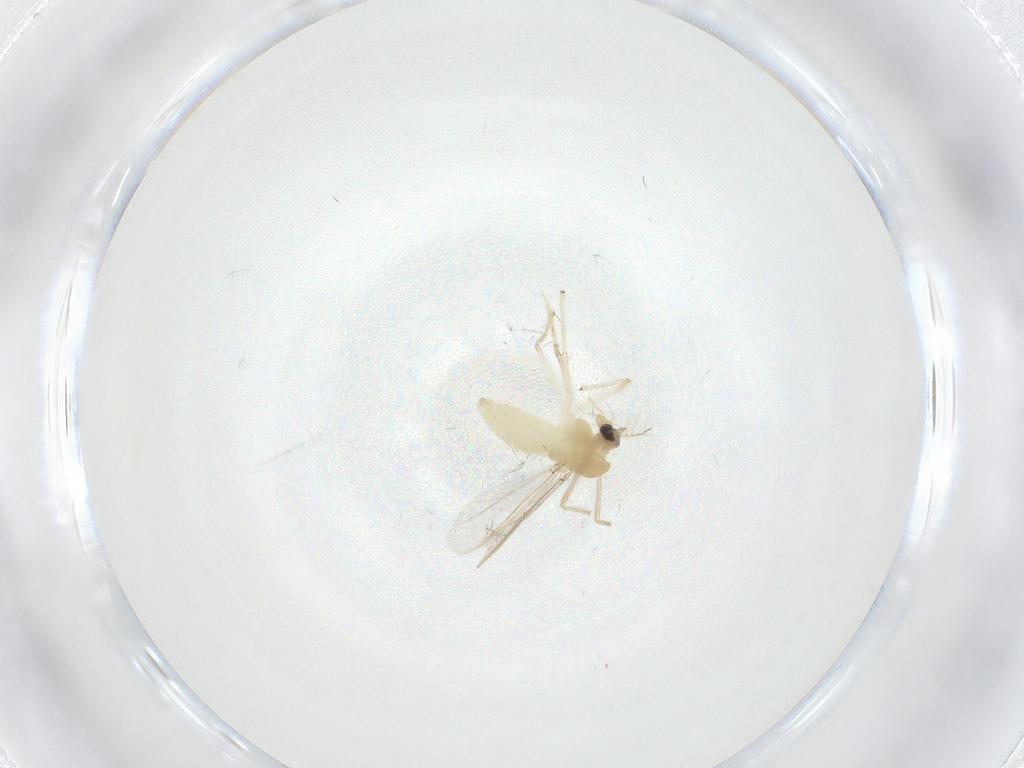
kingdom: Animalia
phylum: Arthropoda
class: Insecta
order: Diptera
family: Chironomidae
